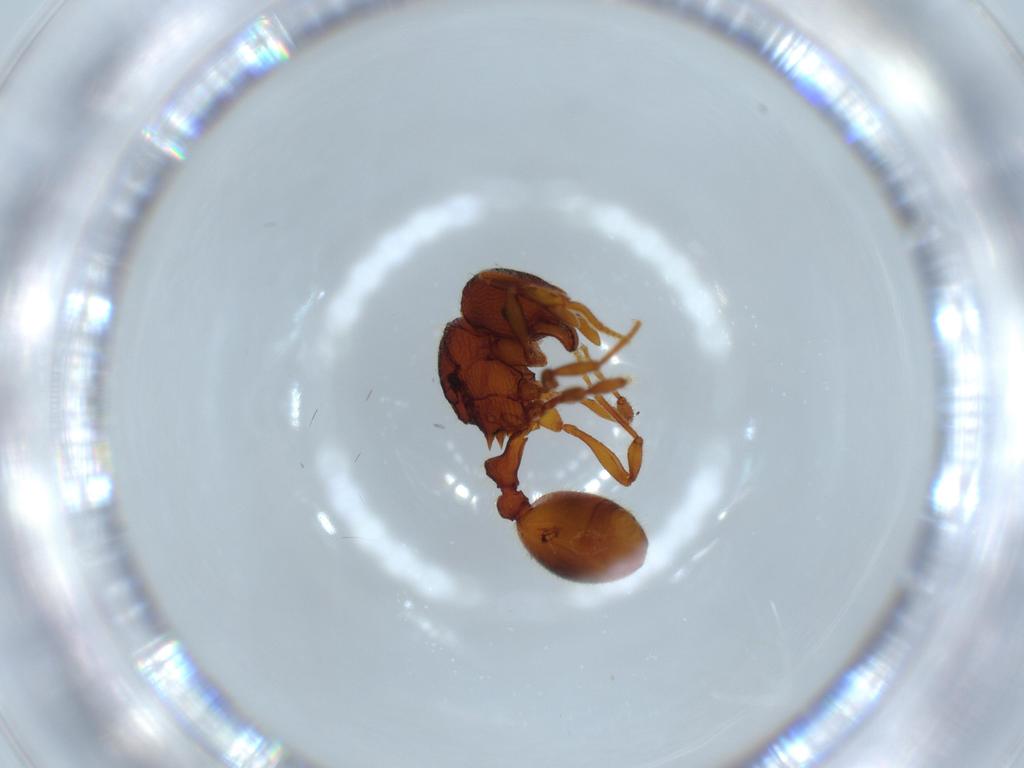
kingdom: Animalia
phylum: Arthropoda
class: Insecta
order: Hymenoptera
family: Formicidae
